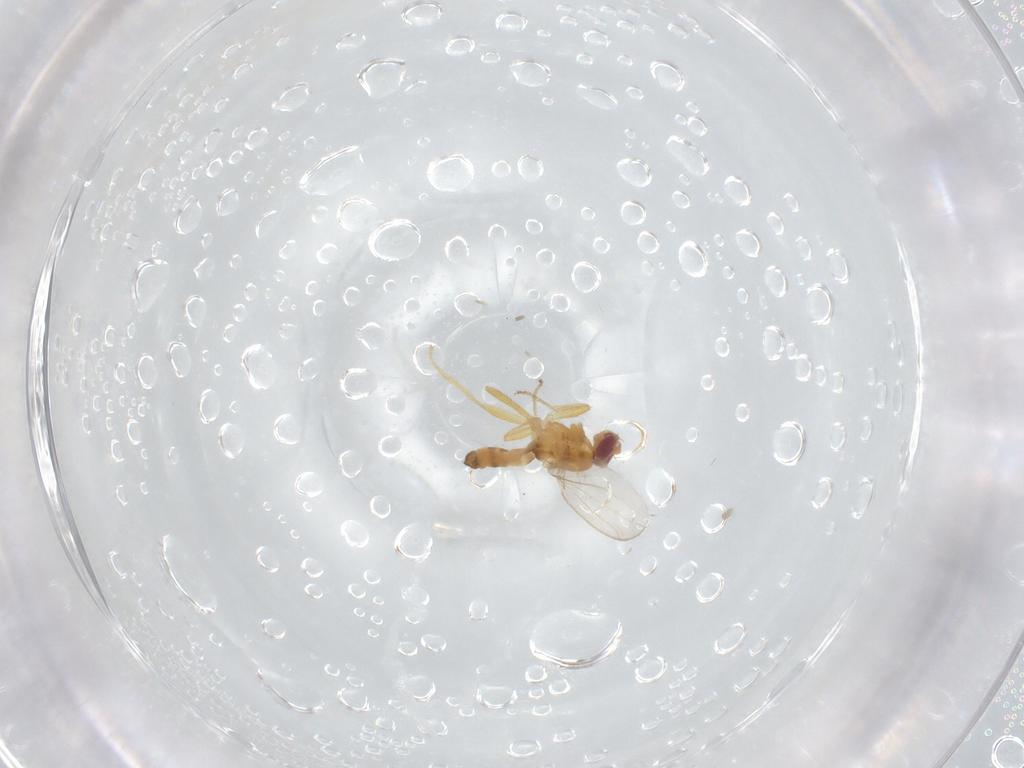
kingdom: Animalia
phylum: Arthropoda
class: Insecta
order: Diptera
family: Periscelididae
